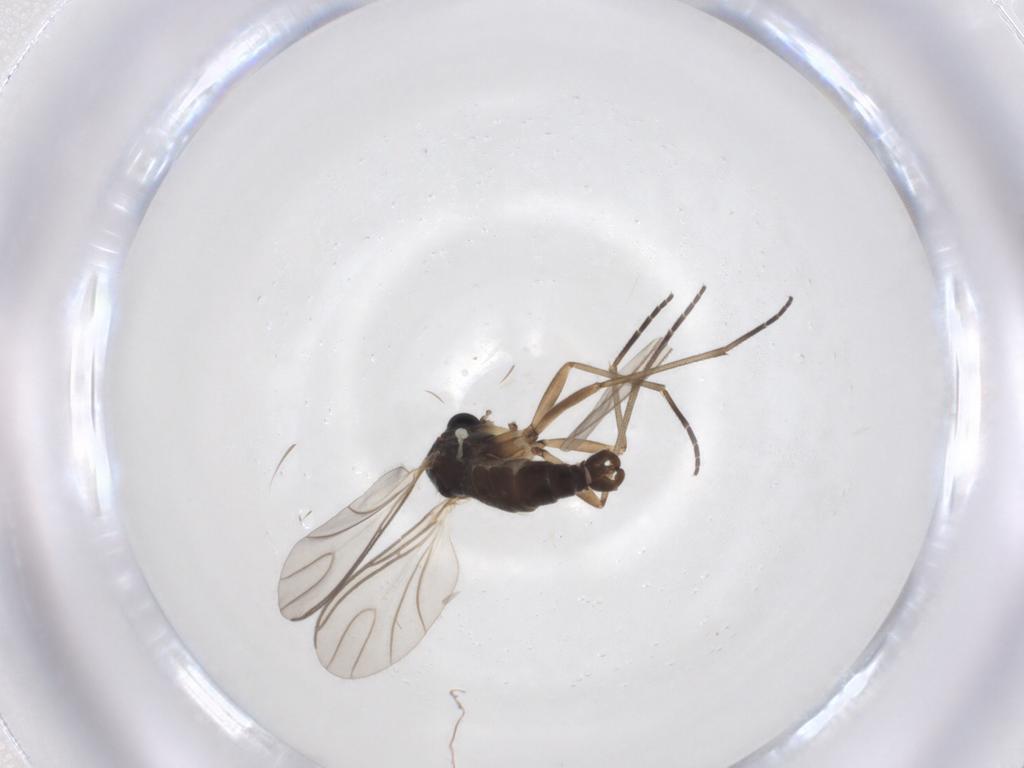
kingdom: Animalia
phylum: Arthropoda
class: Insecta
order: Diptera
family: Cecidomyiidae
